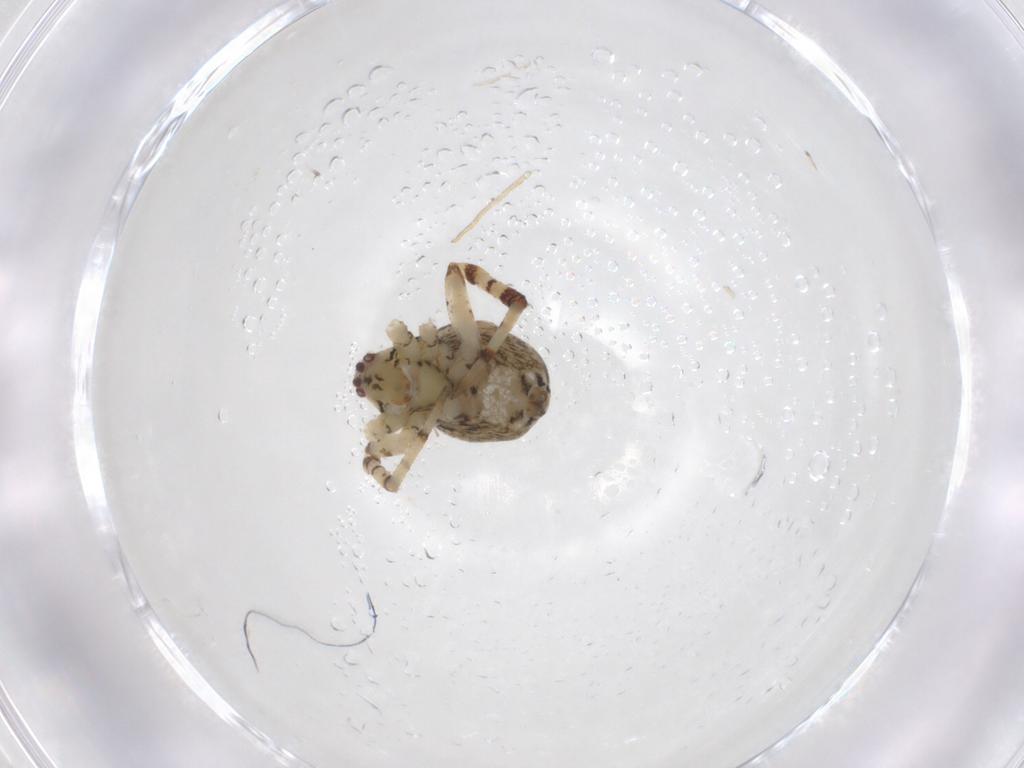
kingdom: Animalia
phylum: Arthropoda
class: Arachnida
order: Araneae
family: Theridiidae
